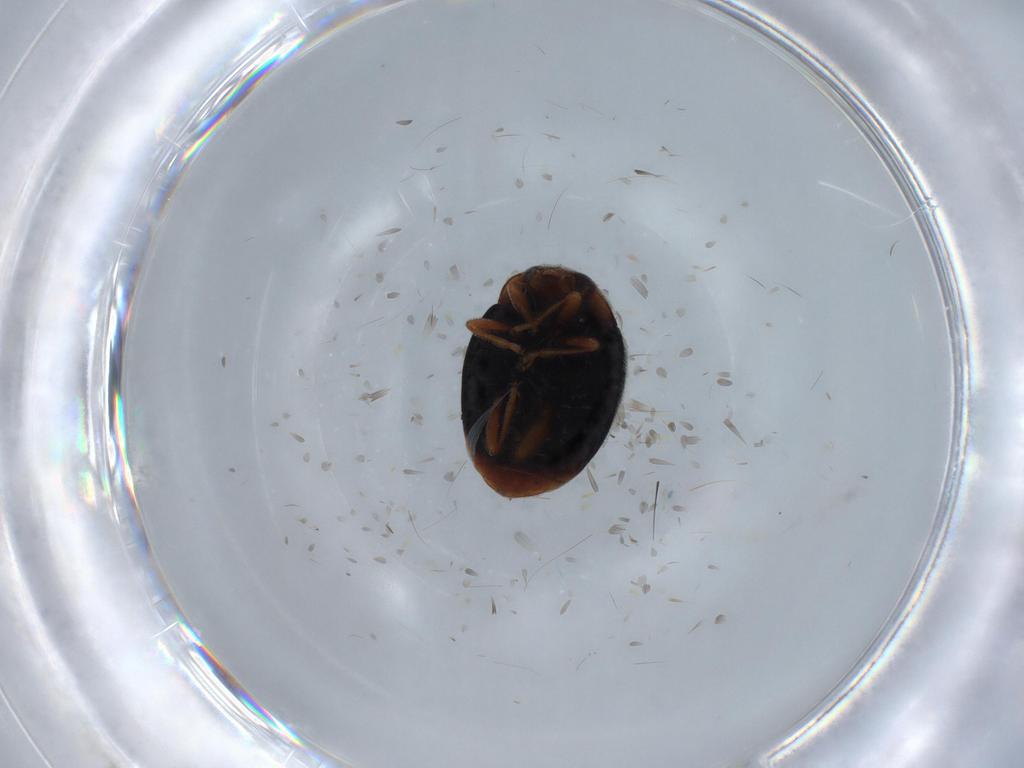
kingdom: Animalia
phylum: Arthropoda
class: Insecta
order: Coleoptera
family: Coccinellidae
